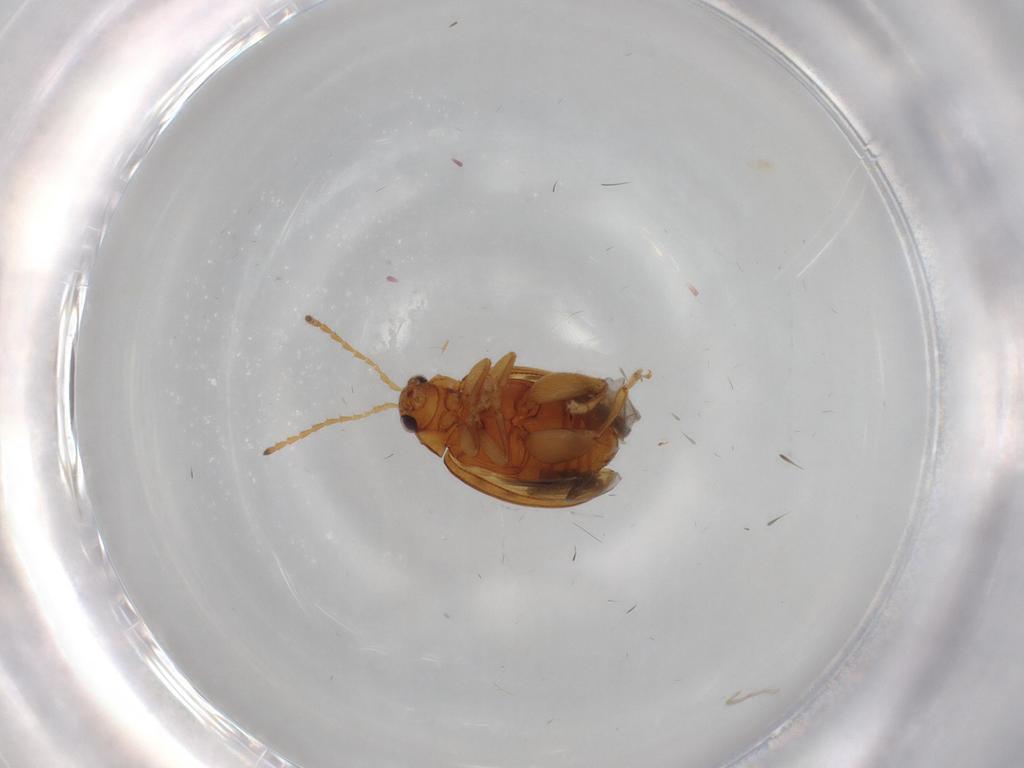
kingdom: Animalia
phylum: Arthropoda
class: Insecta
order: Coleoptera
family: Chrysomelidae
